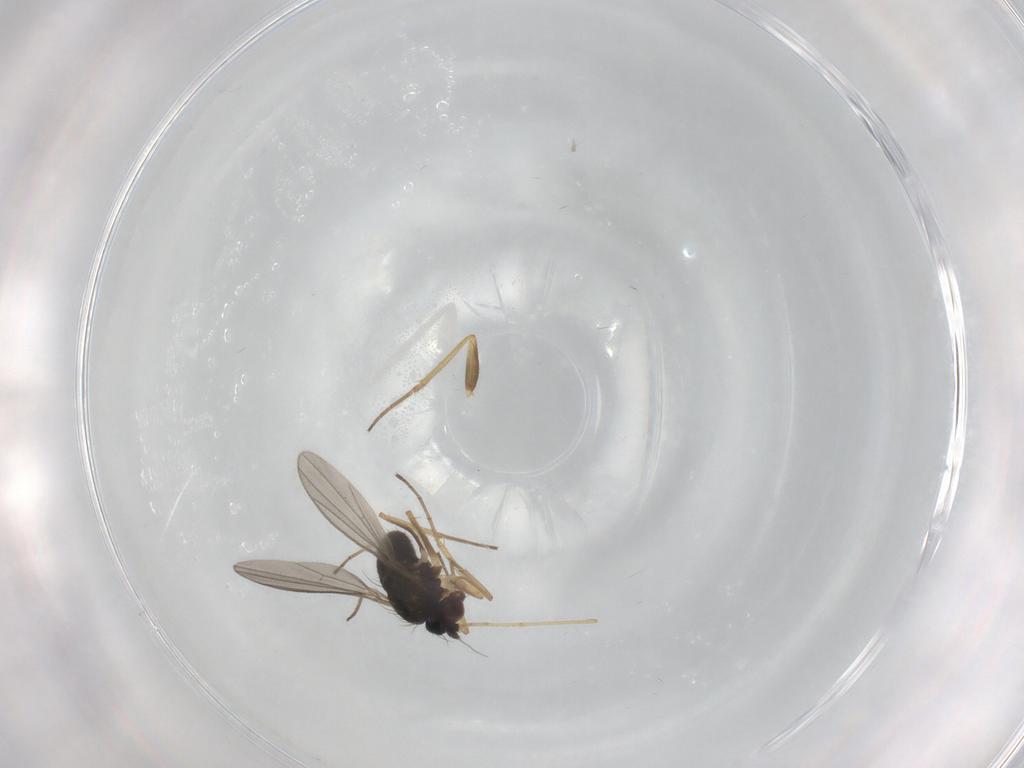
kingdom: Animalia
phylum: Arthropoda
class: Insecta
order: Diptera
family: Dolichopodidae
